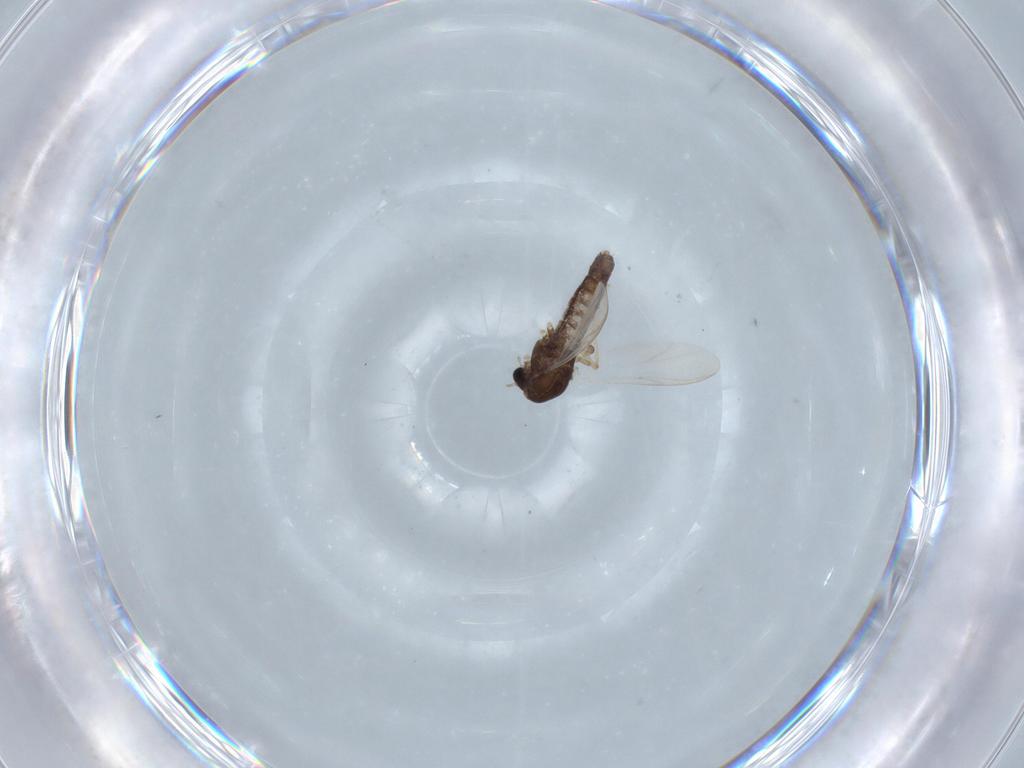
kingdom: Animalia
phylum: Arthropoda
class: Insecta
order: Diptera
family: Chironomidae
